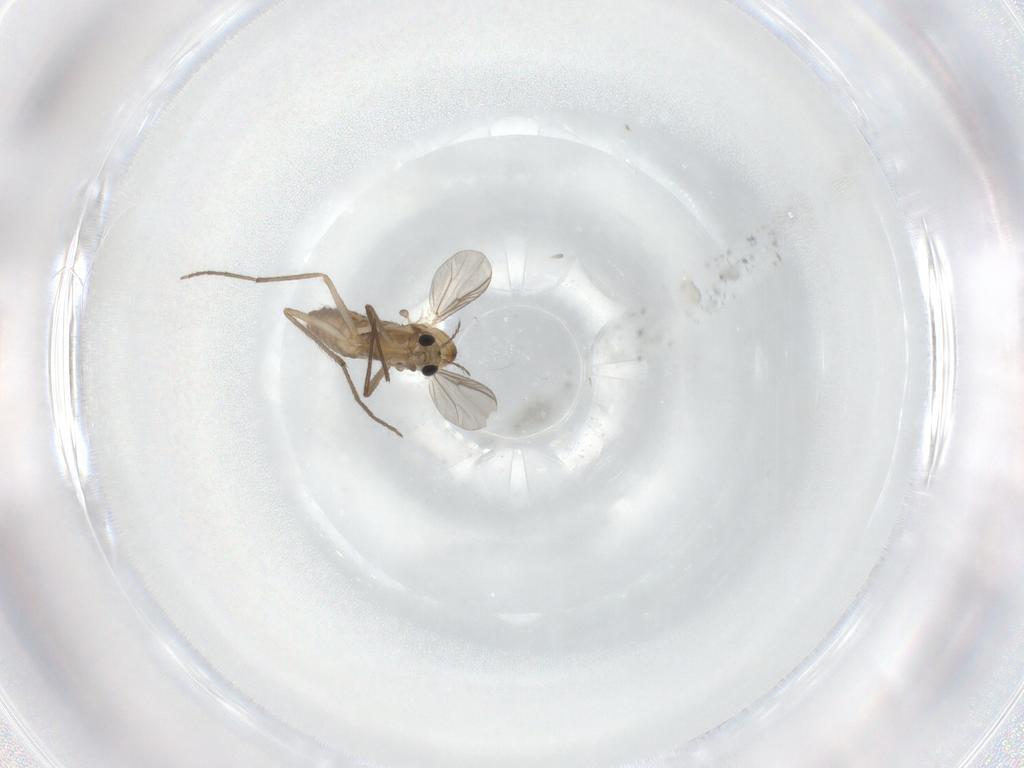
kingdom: Animalia
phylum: Arthropoda
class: Insecta
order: Diptera
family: Chironomidae
